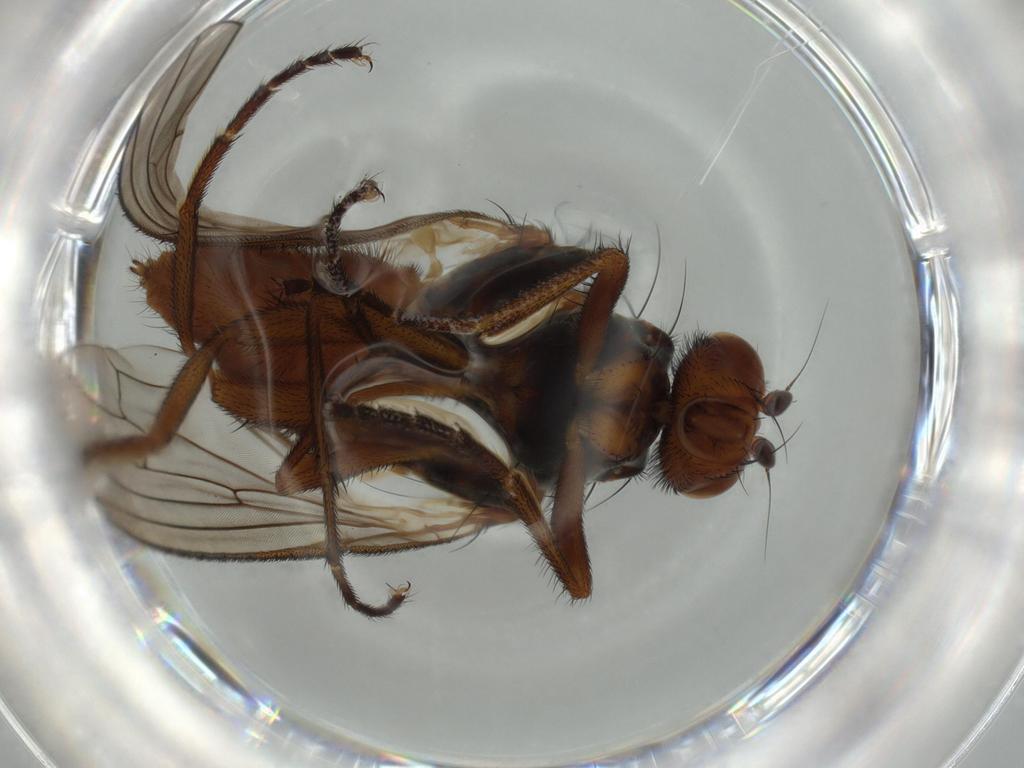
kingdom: Animalia
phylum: Arthropoda
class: Insecta
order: Diptera
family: Heleomyzidae
